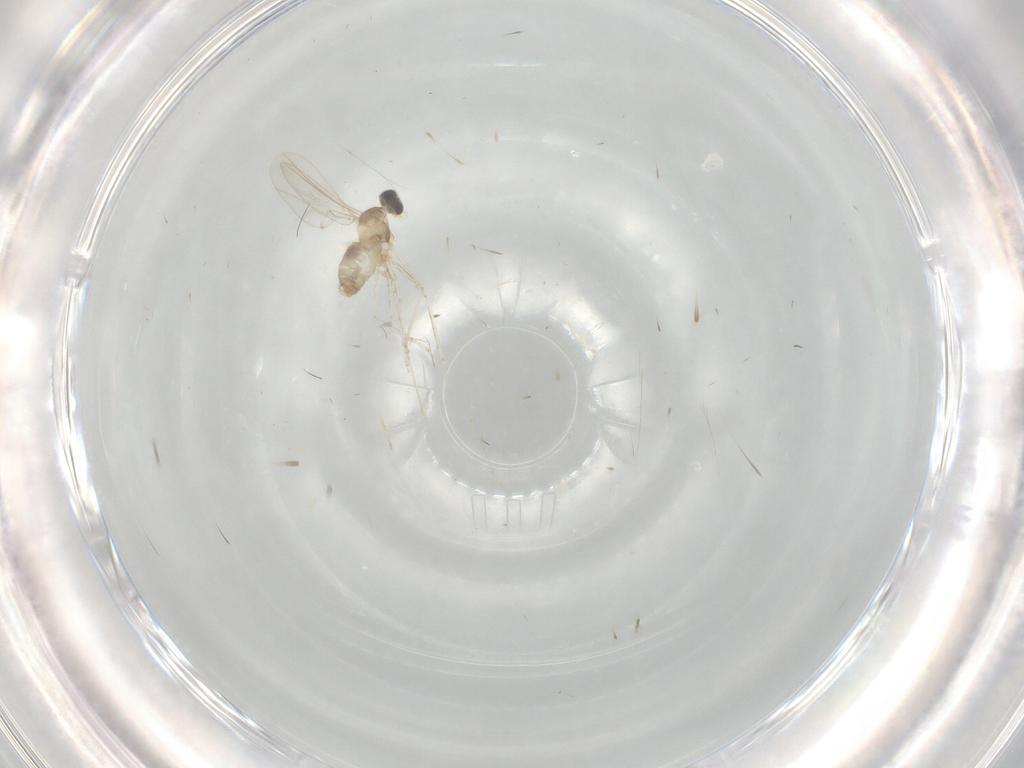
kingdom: Animalia
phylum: Arthropoda
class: Insecta
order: Diptera
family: Cecidomyiidae
